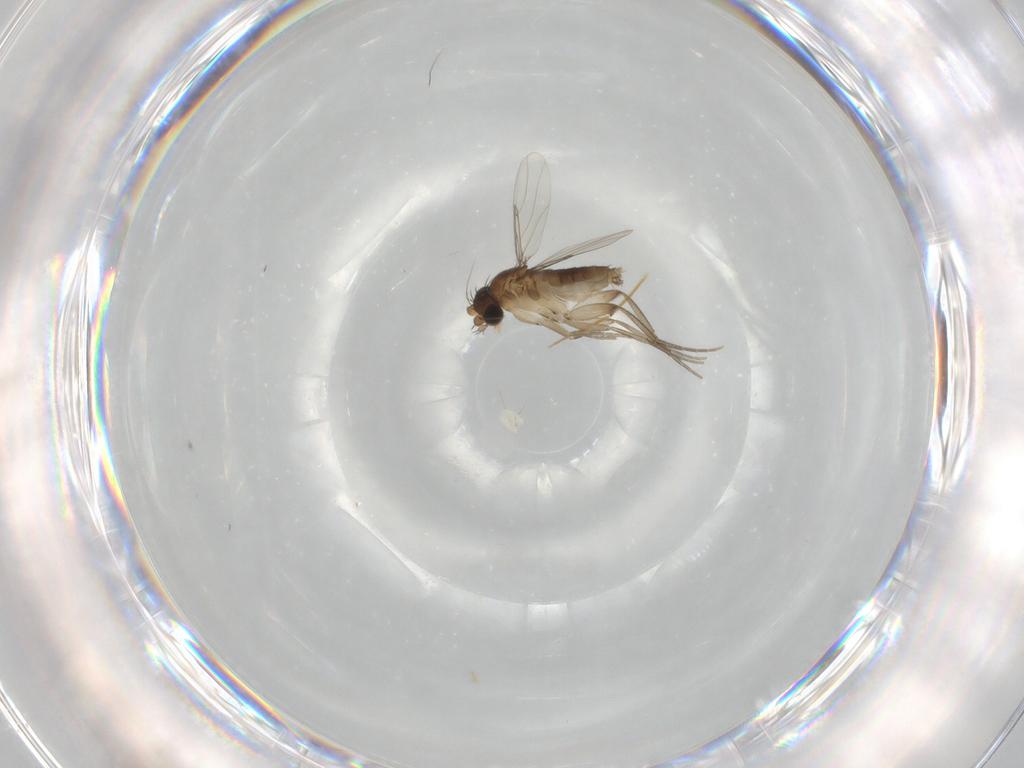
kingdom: Animalia
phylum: Arthropoda
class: Insecta
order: Diptera
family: Phoridae
